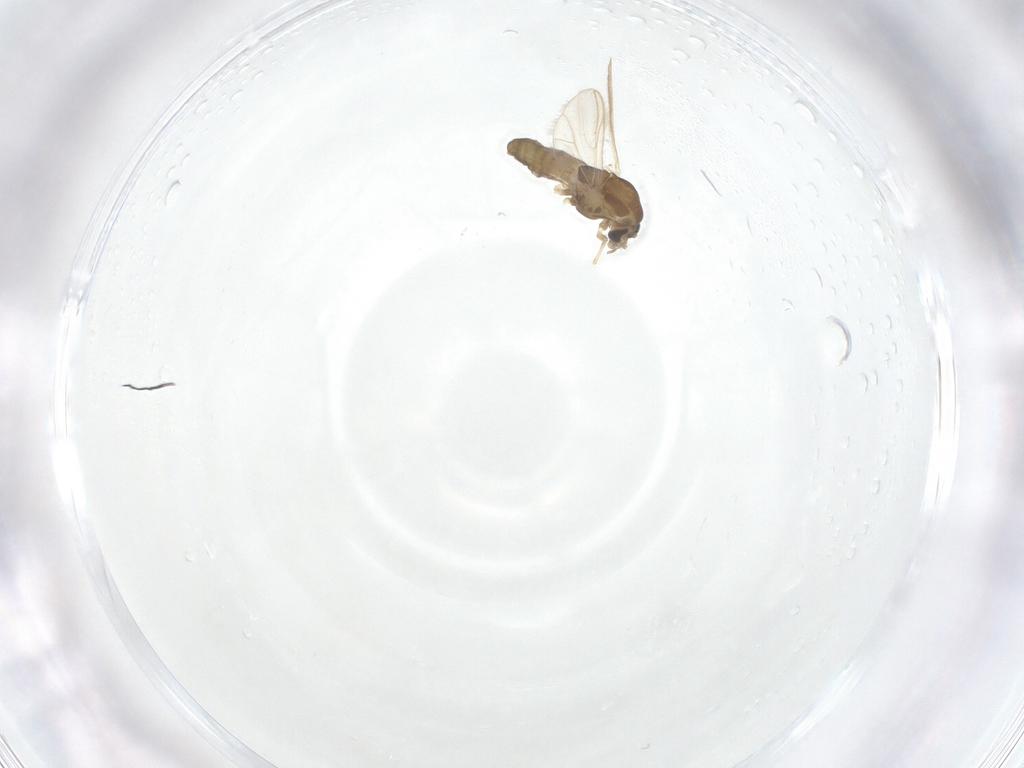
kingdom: Animalia
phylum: Arthropoda
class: Insecta
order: Diptera
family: Chironomidae
